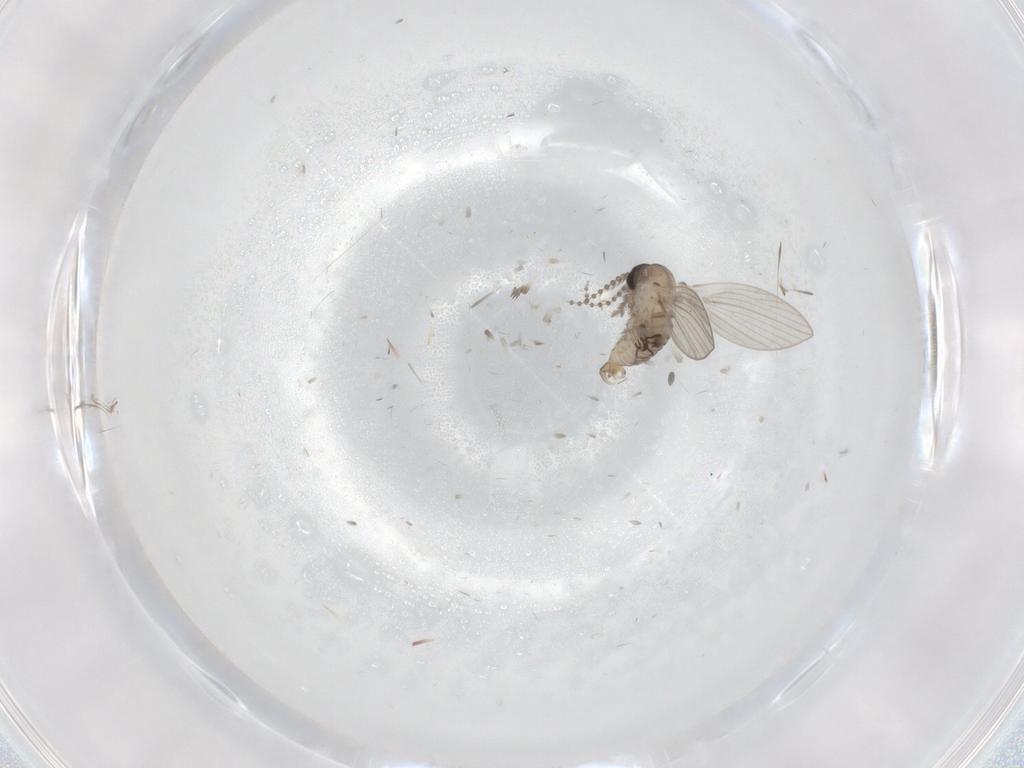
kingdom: Animalia
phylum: Arthropoda
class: Insecta
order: Diptera
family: Psychodidae
